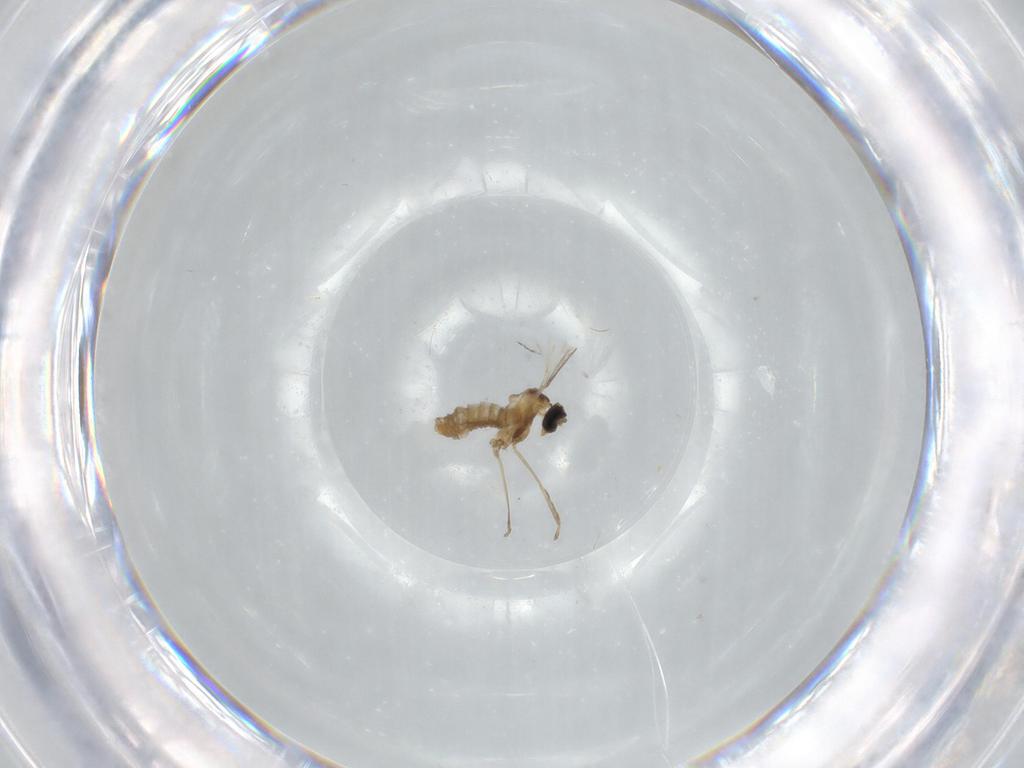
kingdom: Animalia
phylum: Arthropoda
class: Insecta
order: Diptera
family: Cecidomyiidae
